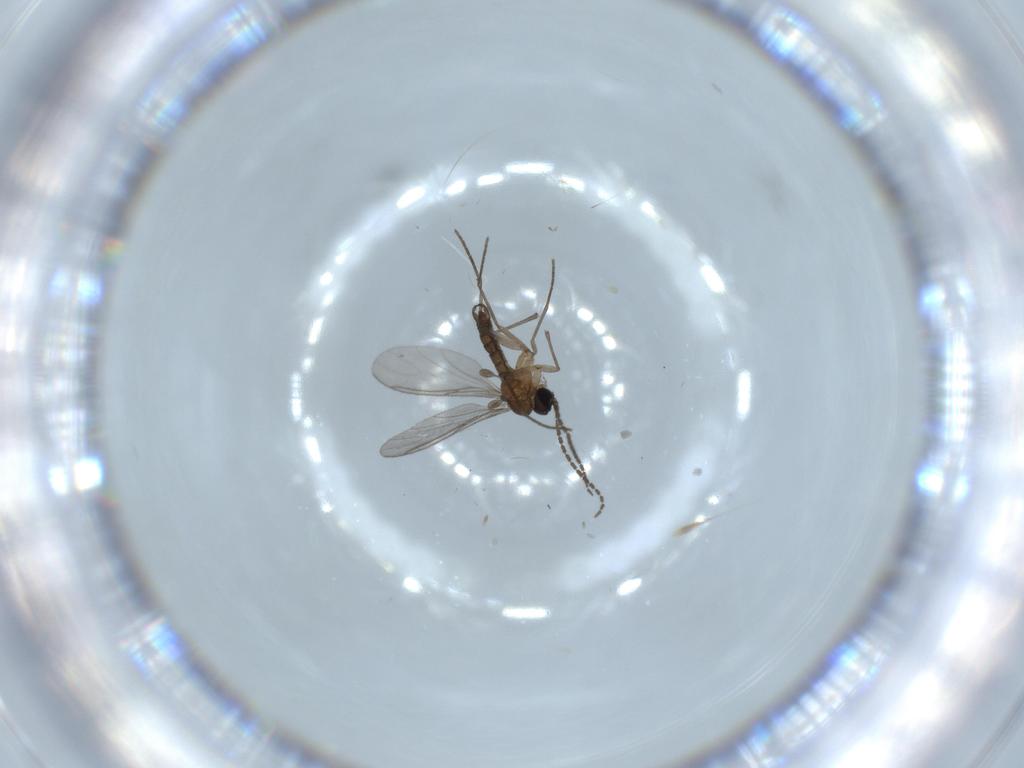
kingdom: Animalia
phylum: Arthropoda
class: Insecta
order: Diptera
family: Sciaridae
